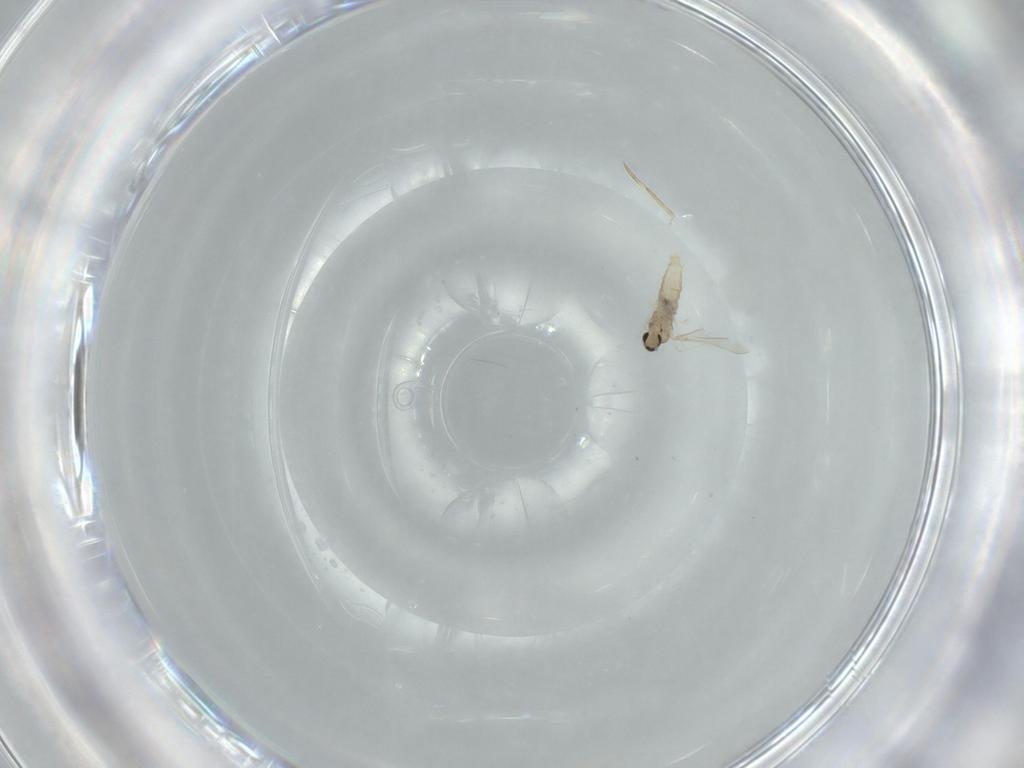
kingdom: Animalia
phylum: Arthropoda
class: Insecta
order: Diptera
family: Cecidomyiidae
